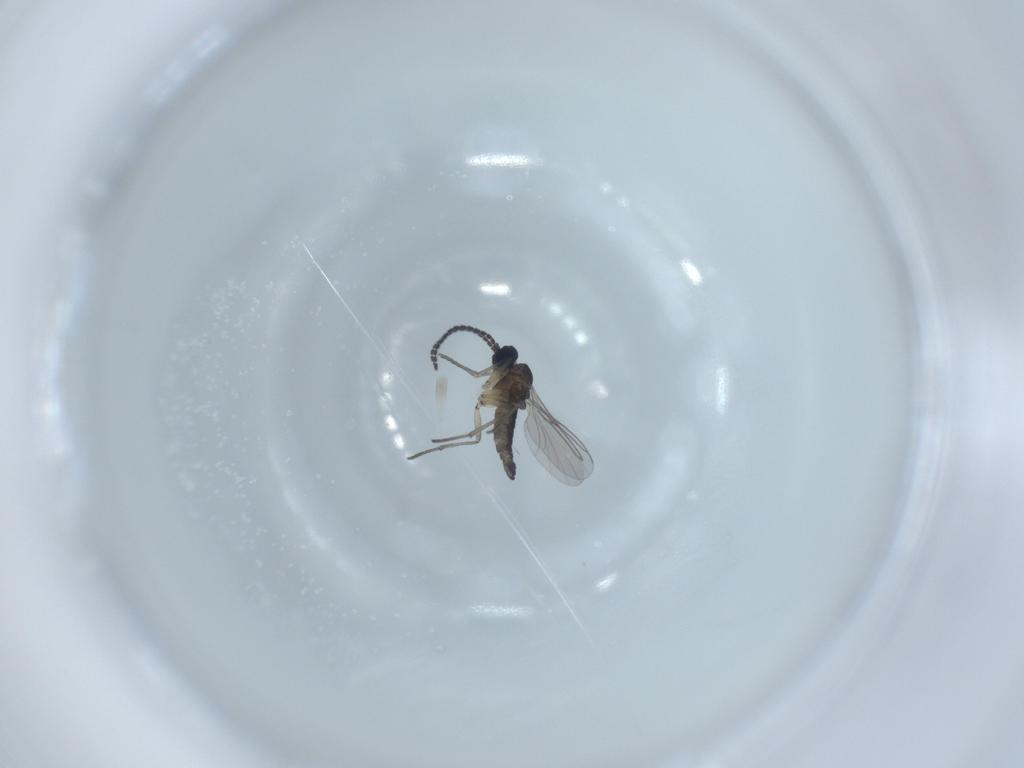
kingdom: Animalia
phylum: Arthropoda
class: Insecta
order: Diptera
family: Sciaridae
